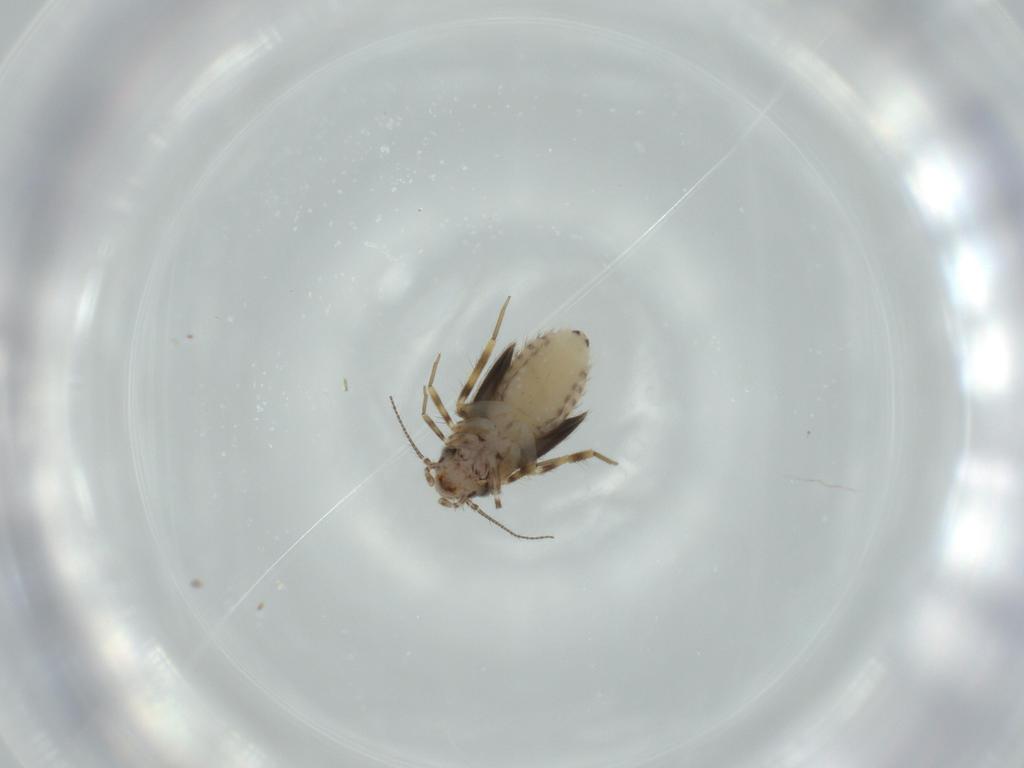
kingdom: Animalia
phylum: Arthropoda
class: Insecta
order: Psocodea
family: Lepidopsocidae
